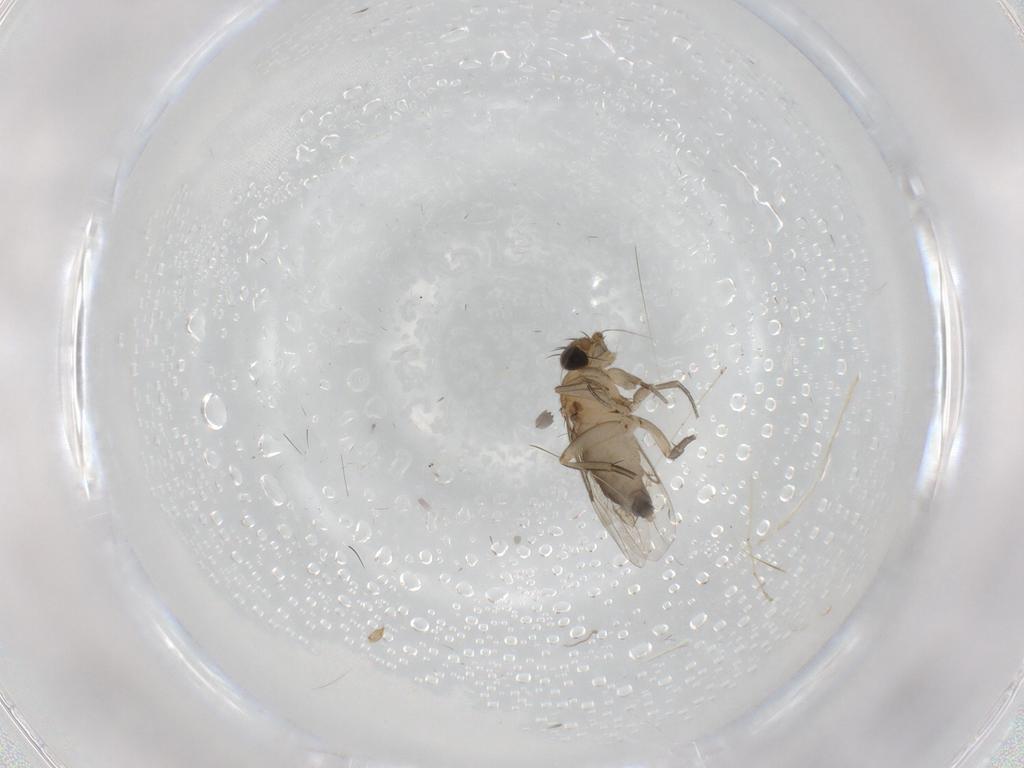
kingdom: Animalia
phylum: Arthropoda
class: Insecta
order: Diptera
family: Phoridae
